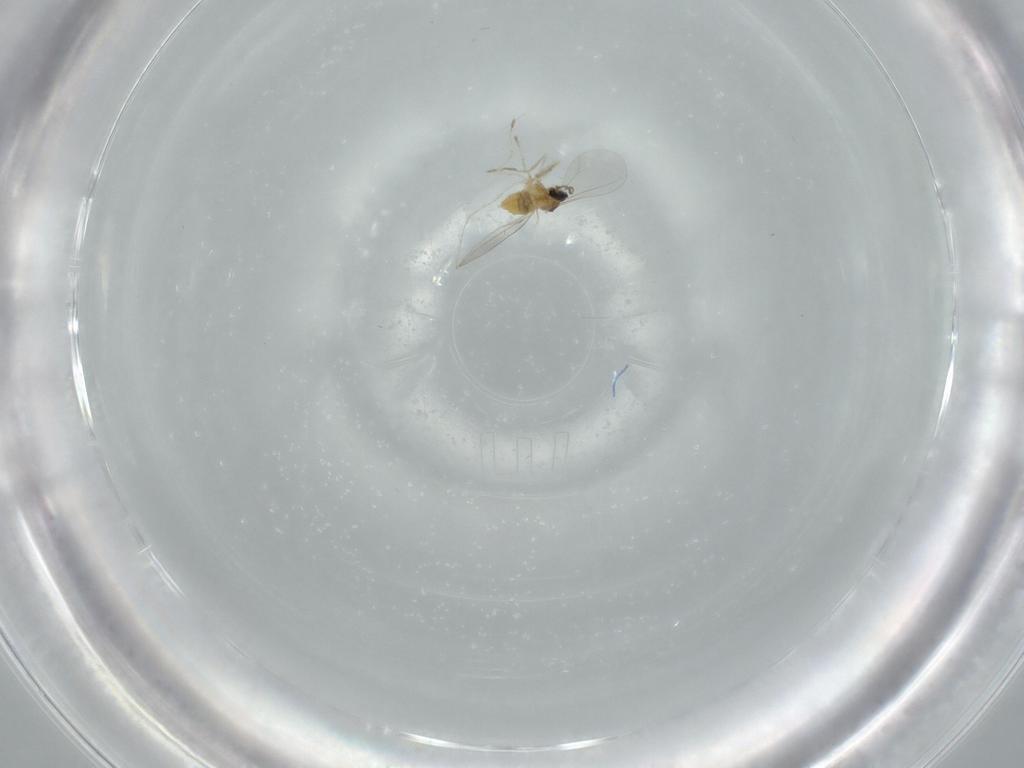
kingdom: Animalia
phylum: Arthropoda
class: Insecta
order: Diptera
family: Cecidomyiidae
